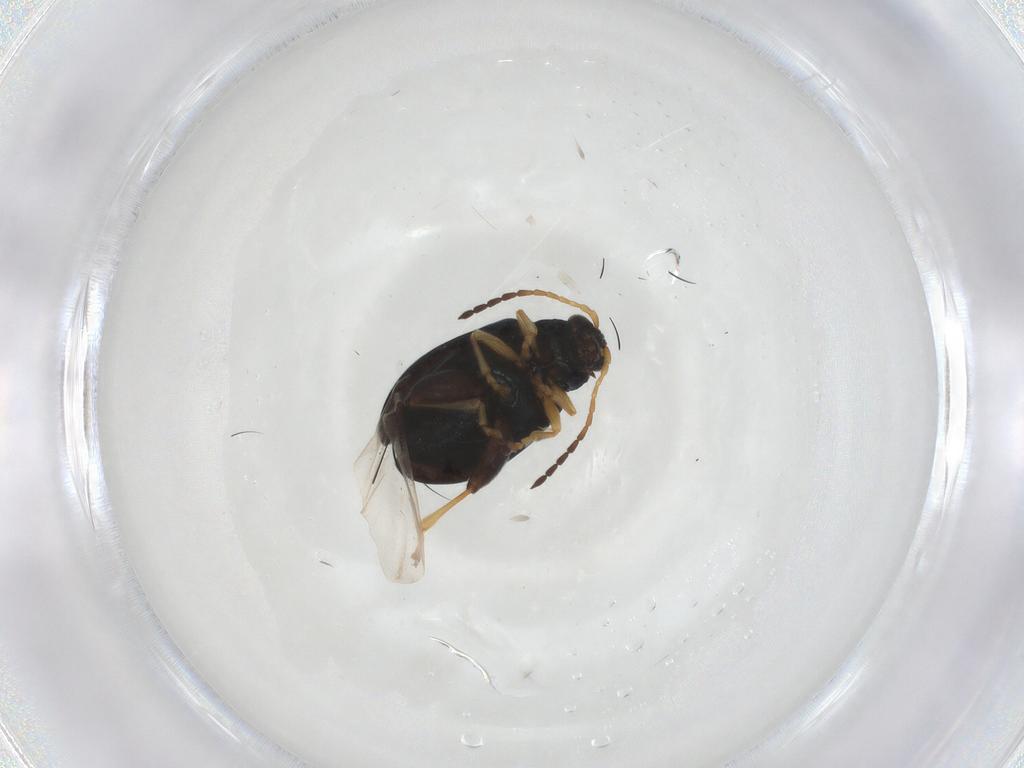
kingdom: Animalia
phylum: Arthropoda
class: Insecta
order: Coleoptera
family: Chrysomelidae
